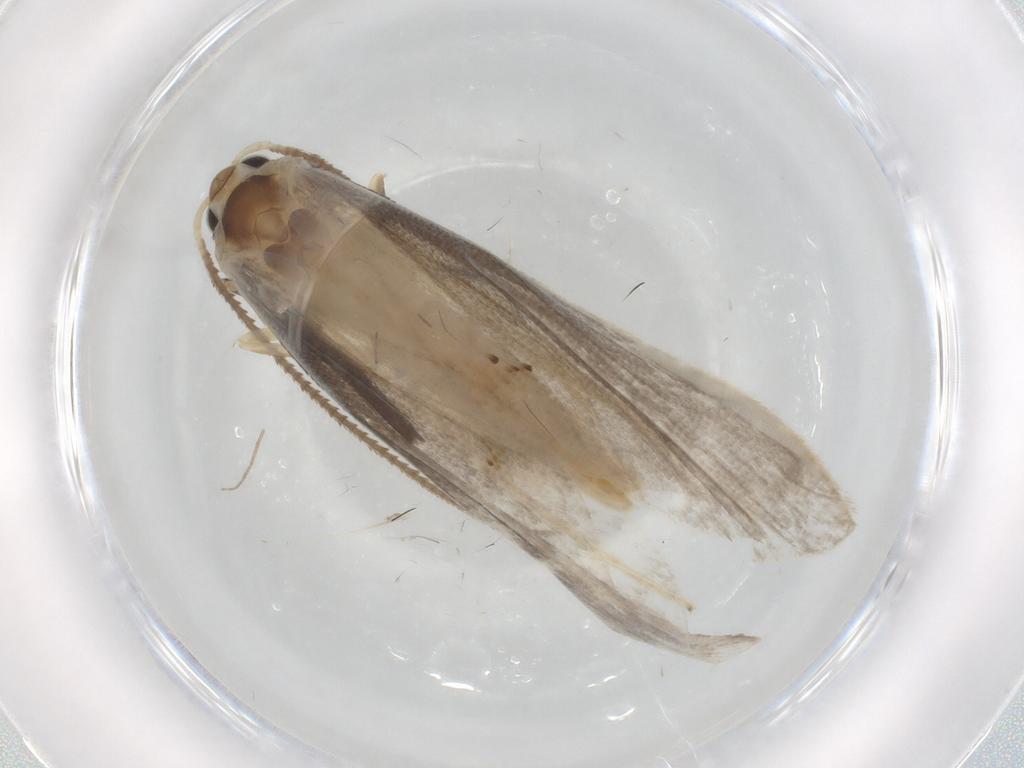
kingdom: Animalia
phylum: Arthropoda
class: Insecta
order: Lepidoptera
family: Yponomeutidae
